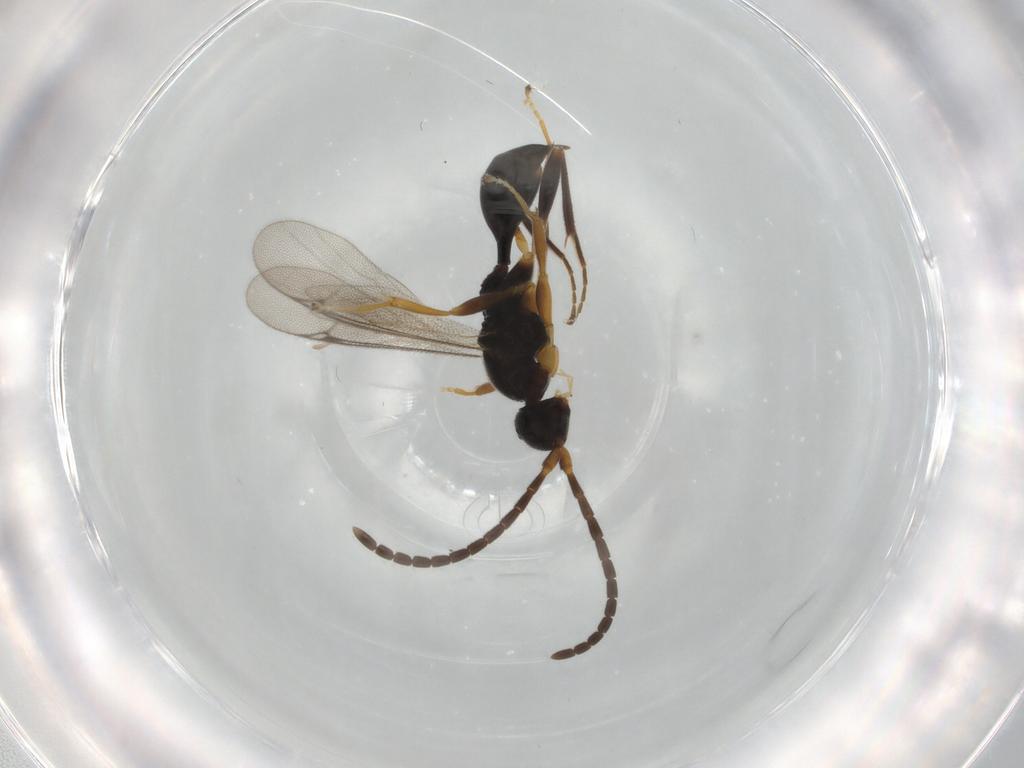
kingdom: Animalia
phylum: Arthropoda
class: Insecta
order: Hymenoptera
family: Proctotrupidae
